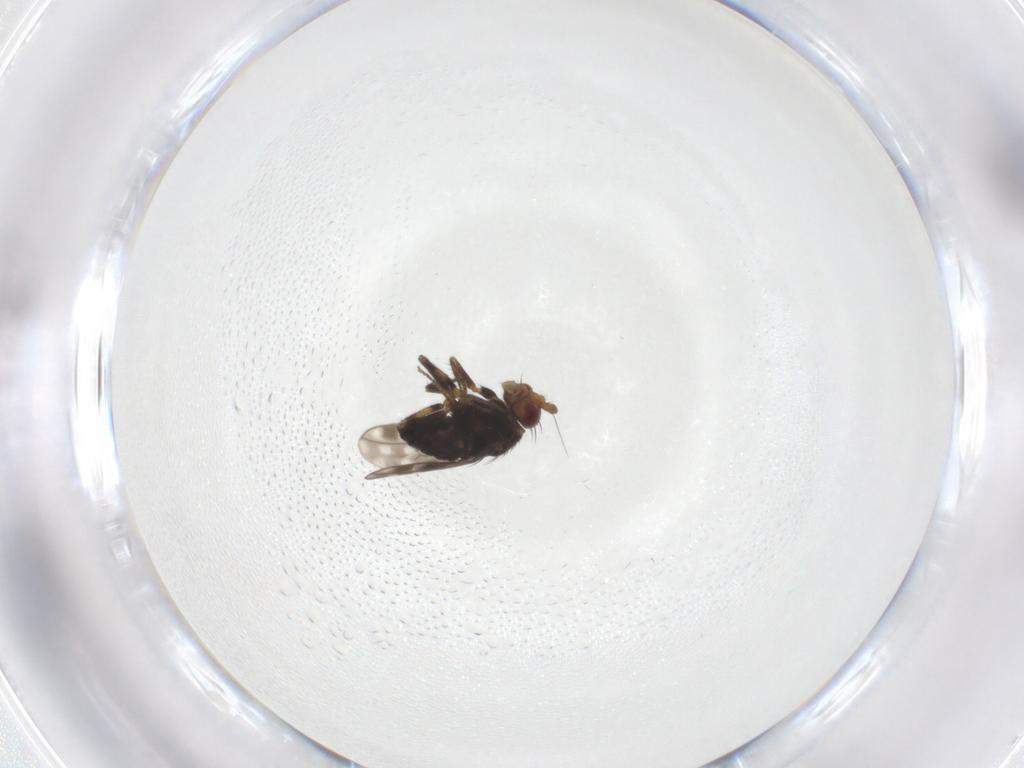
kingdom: Animalia
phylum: Arthropoda
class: Insecta
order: Diptera
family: Sphaeroceridae
